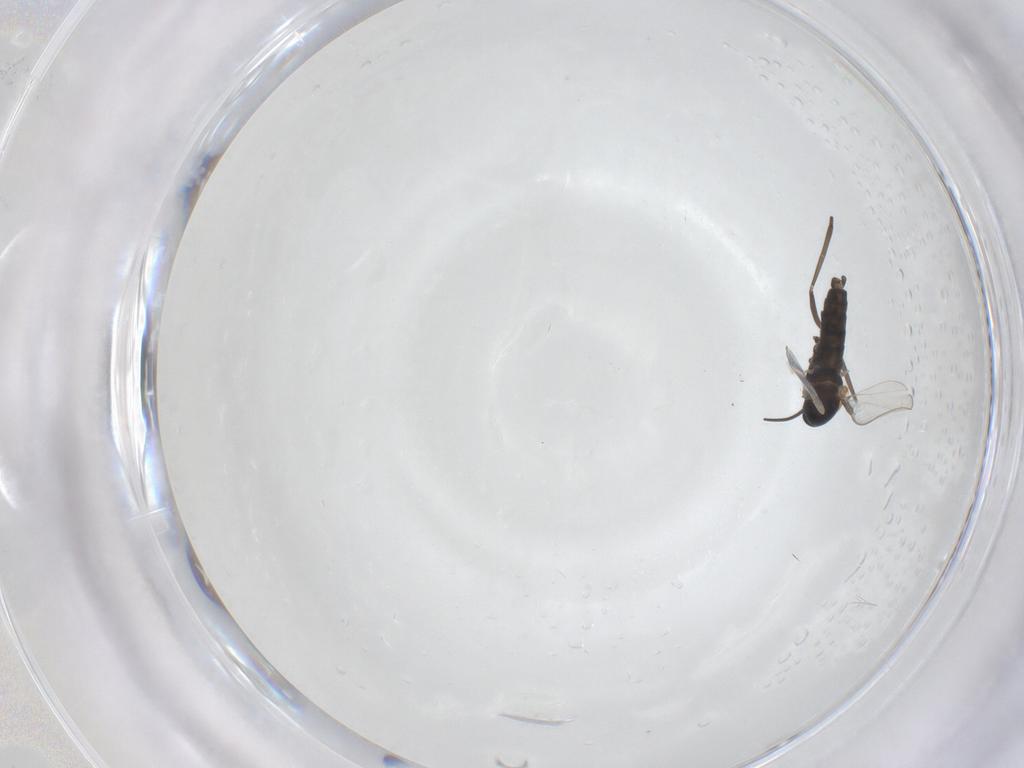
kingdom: Animalia
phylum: Arthropoda
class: Insecta
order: Diptera
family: Cecidomyiidae
